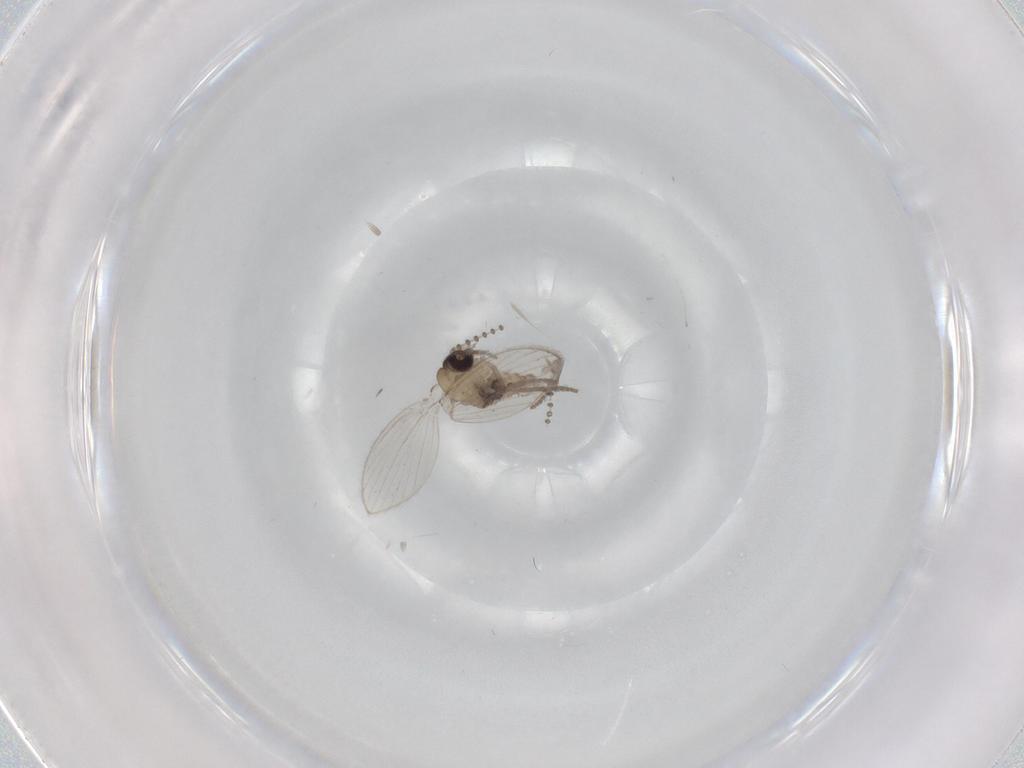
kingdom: Animalia
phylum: Arthropoda
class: Insecta
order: Diptera
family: Psychodidae
